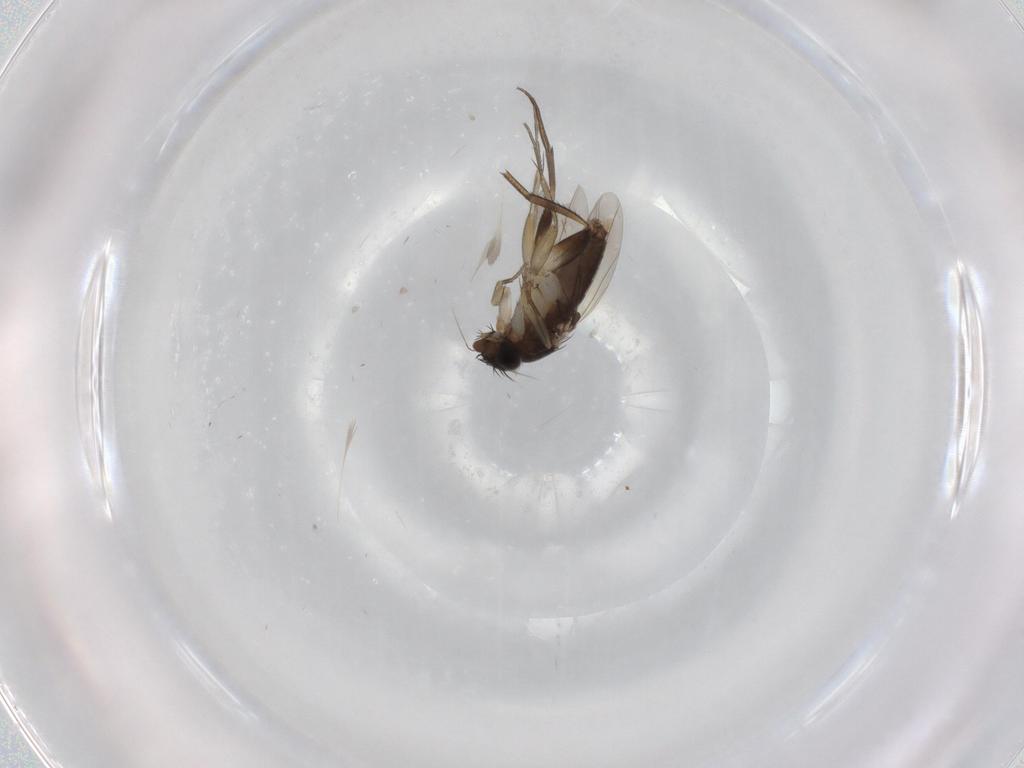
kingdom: Animalia
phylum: Arthropoda
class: Insecta
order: Diptera
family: Phoridae
